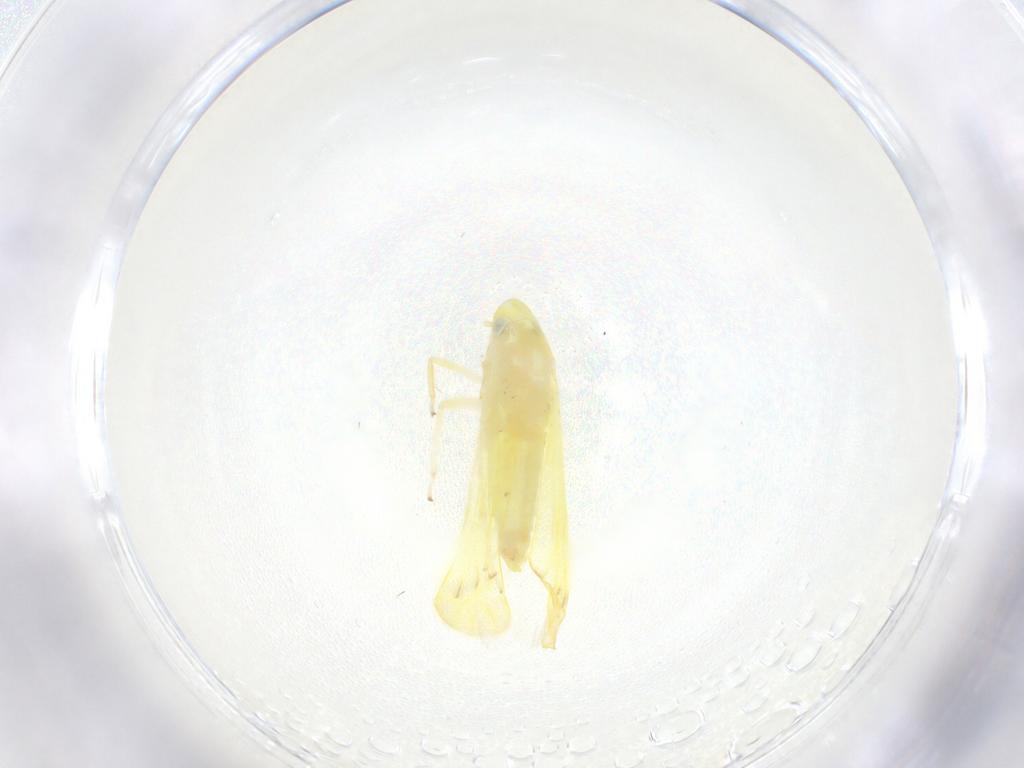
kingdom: Animalia
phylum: Arthropoda
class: Insecta
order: Hemiptera
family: Cicadellidae
